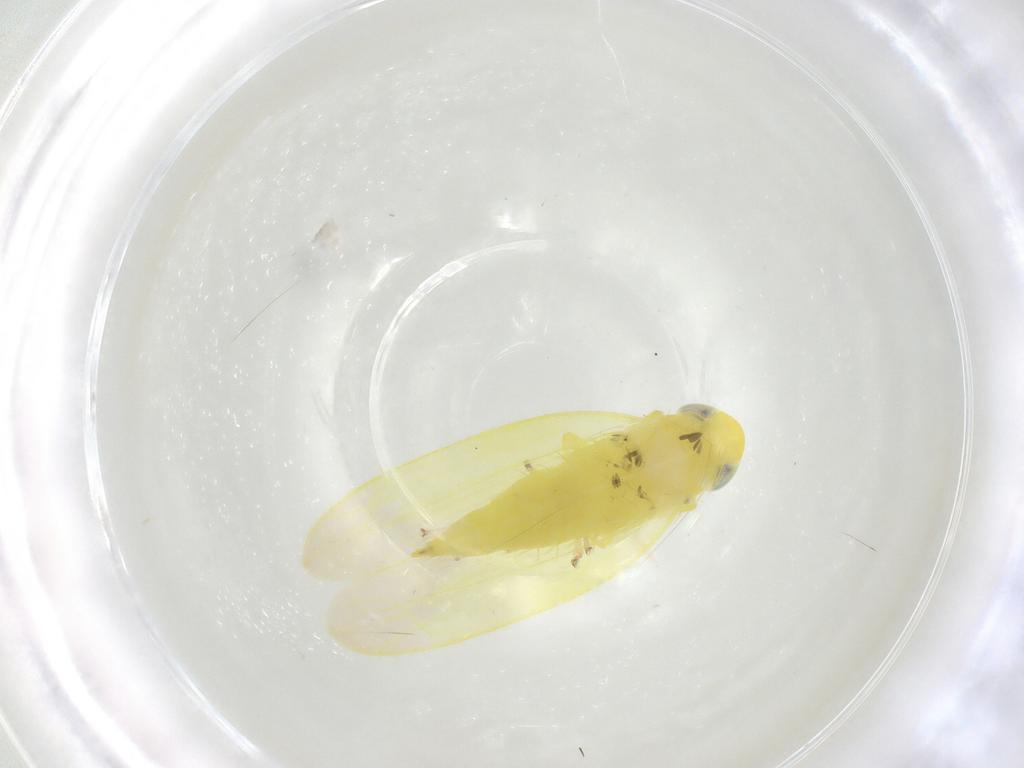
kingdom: Animalia
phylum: Arthropoda
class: Insecta
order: Hemiptera
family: Cicadellidae
